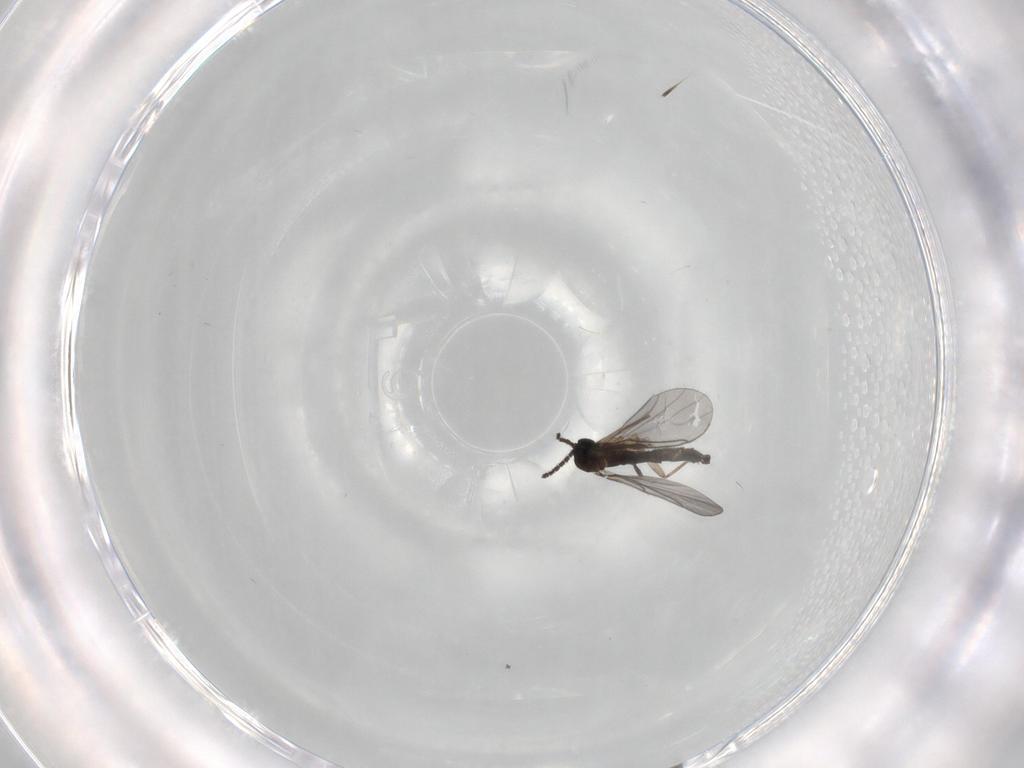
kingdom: Animalia
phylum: Arthropoda
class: Insecta
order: Diptera
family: Sciaridae
